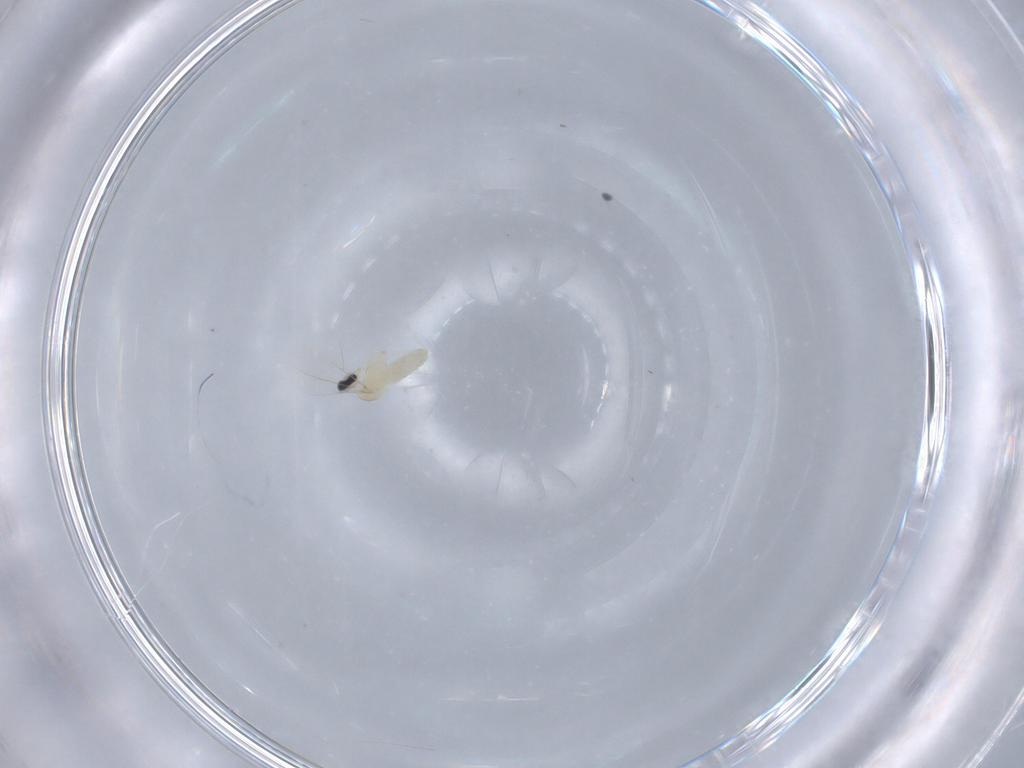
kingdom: Animalia
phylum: Arthropoda
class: Insecta
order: Diptera
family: Cecidomyiidae
